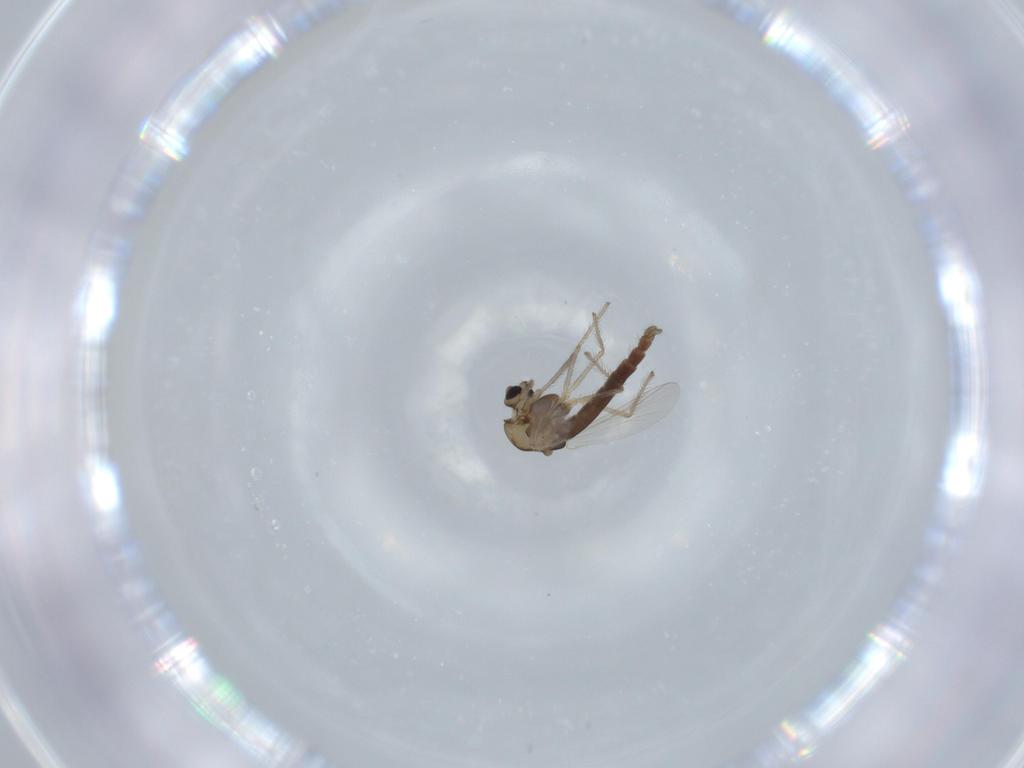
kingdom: Animalia
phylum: Arthropoda
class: Insecta
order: Diptera
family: Chironomidae
